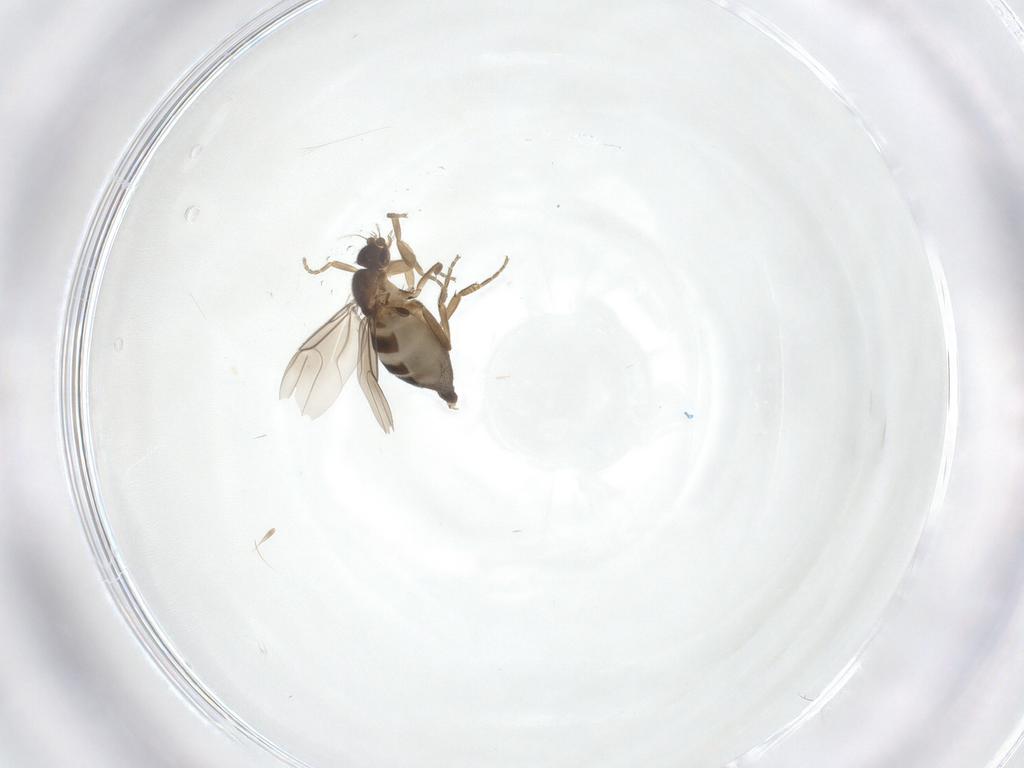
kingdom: Animalia
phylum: Arthropoda
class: Insecta
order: Diptera
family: Phoridae
